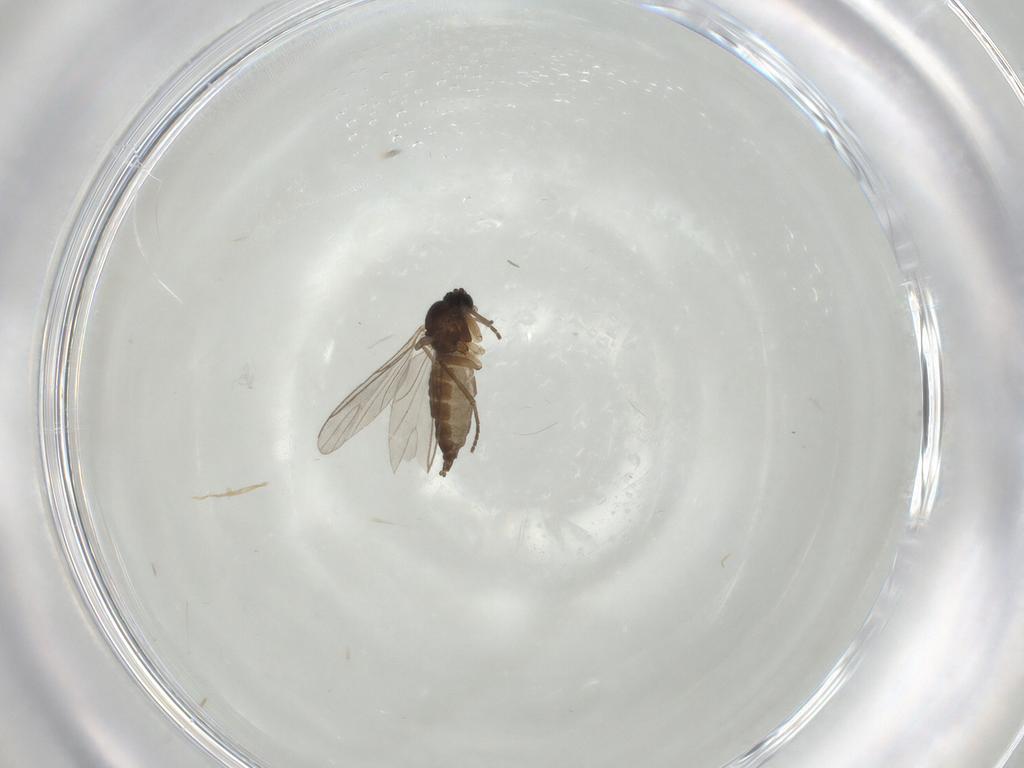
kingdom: Animalia
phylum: Arthropoda
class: Insecta
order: Diptera
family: Sciaridae
